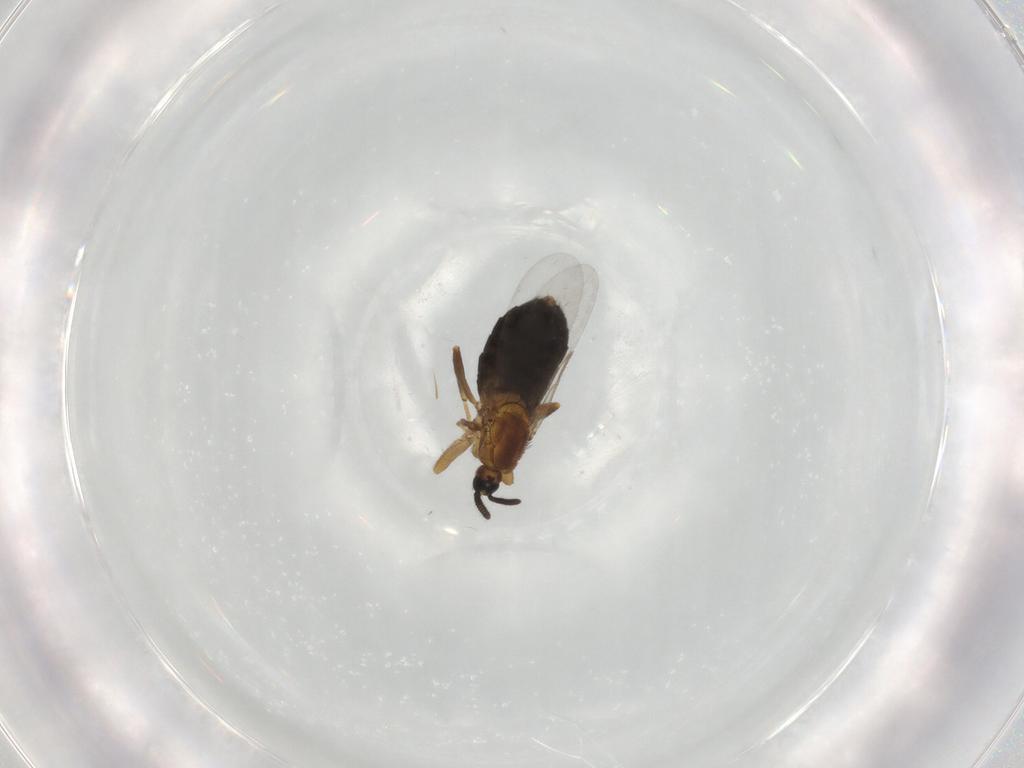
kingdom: Animalia
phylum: Arthropoda
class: Insecta
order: Diptera
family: Scatopsidae
